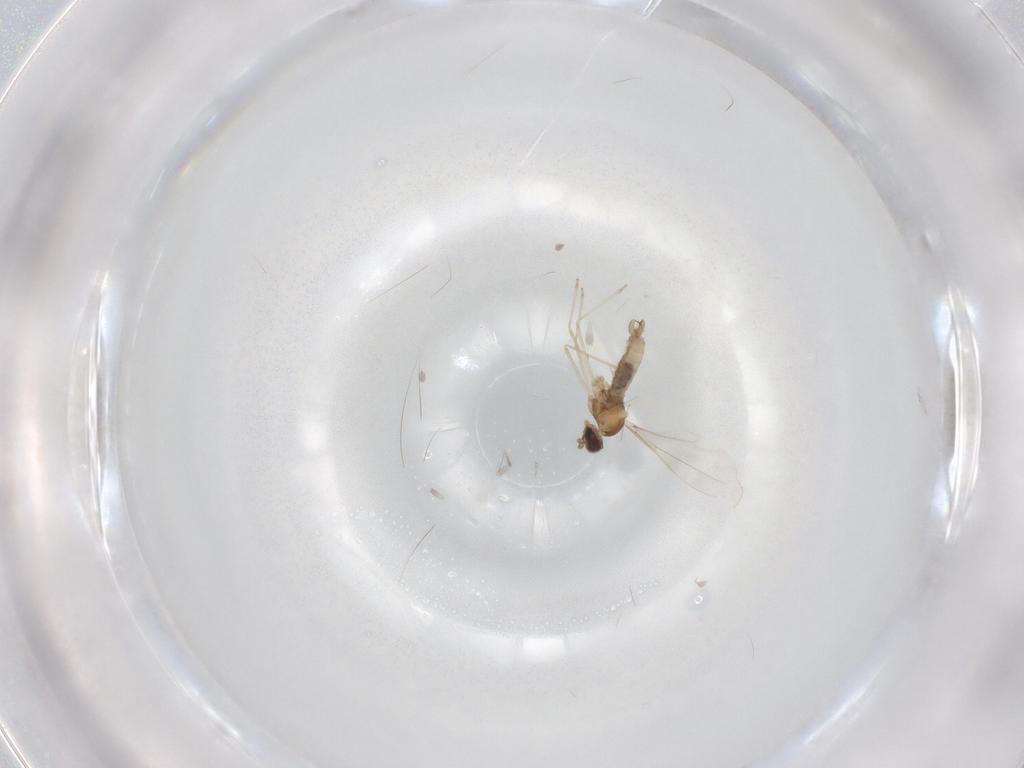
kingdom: Animalia
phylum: Arthropoda
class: Insecta
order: Diptera
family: Cecidomyiidae
